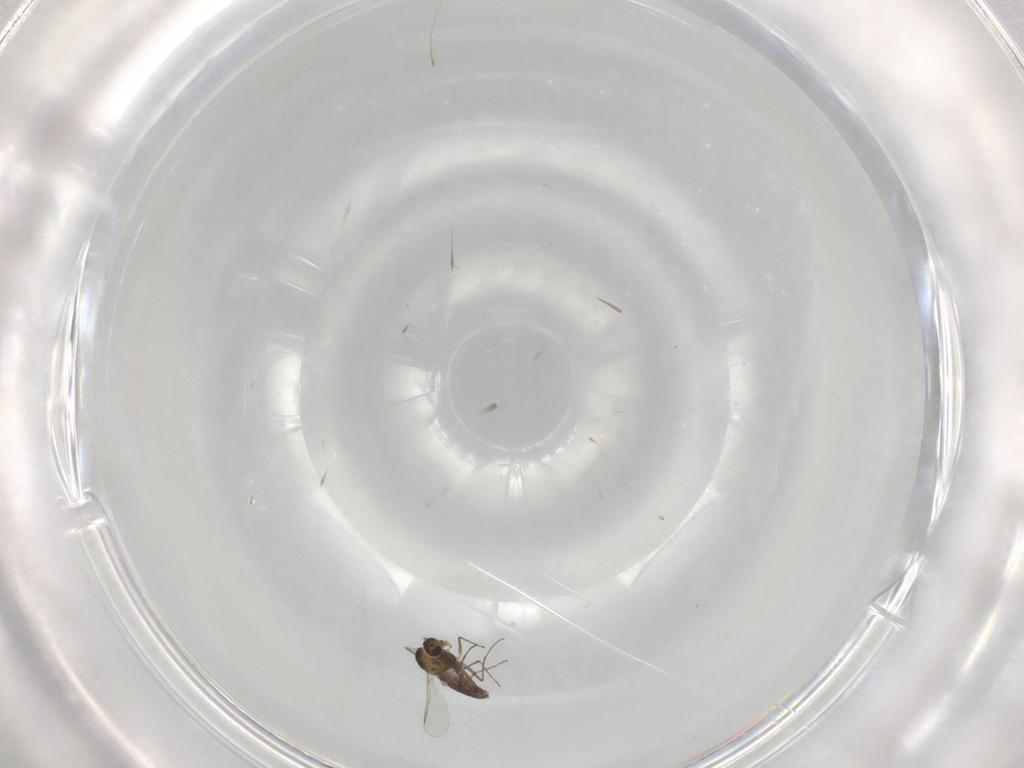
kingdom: Animalia
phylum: Arthropoda
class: Insecta
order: Diptera
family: Chironomidae
